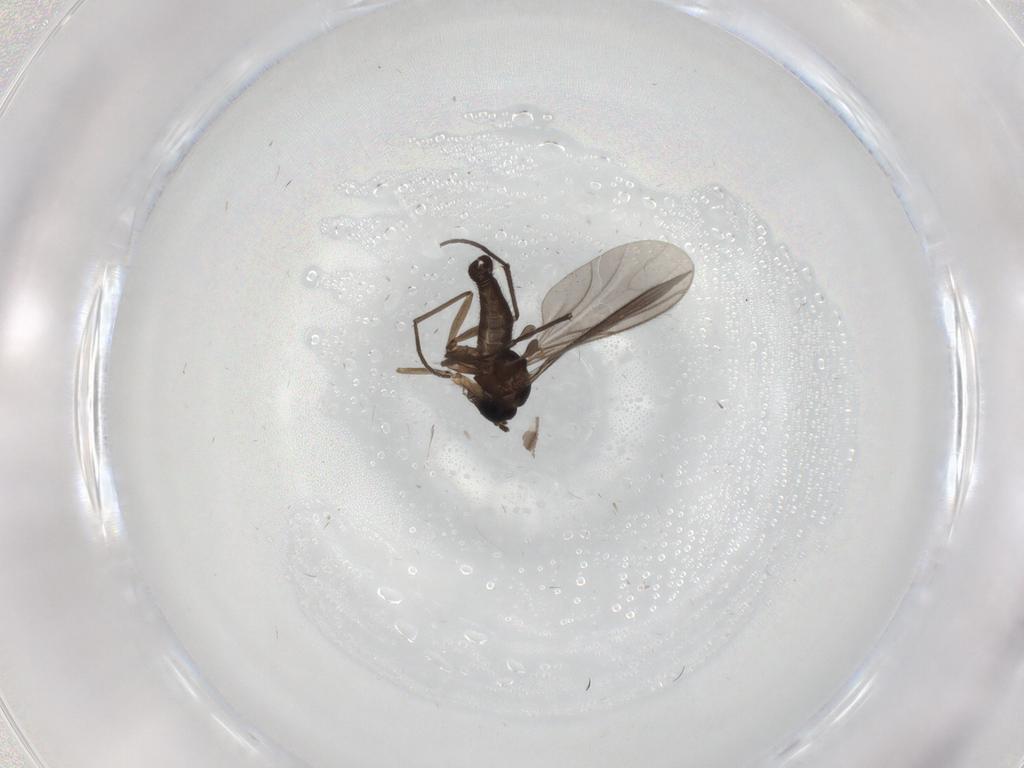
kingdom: Animalia
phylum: Arthropoda
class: Insecta
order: Diptera
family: Sciaridae
